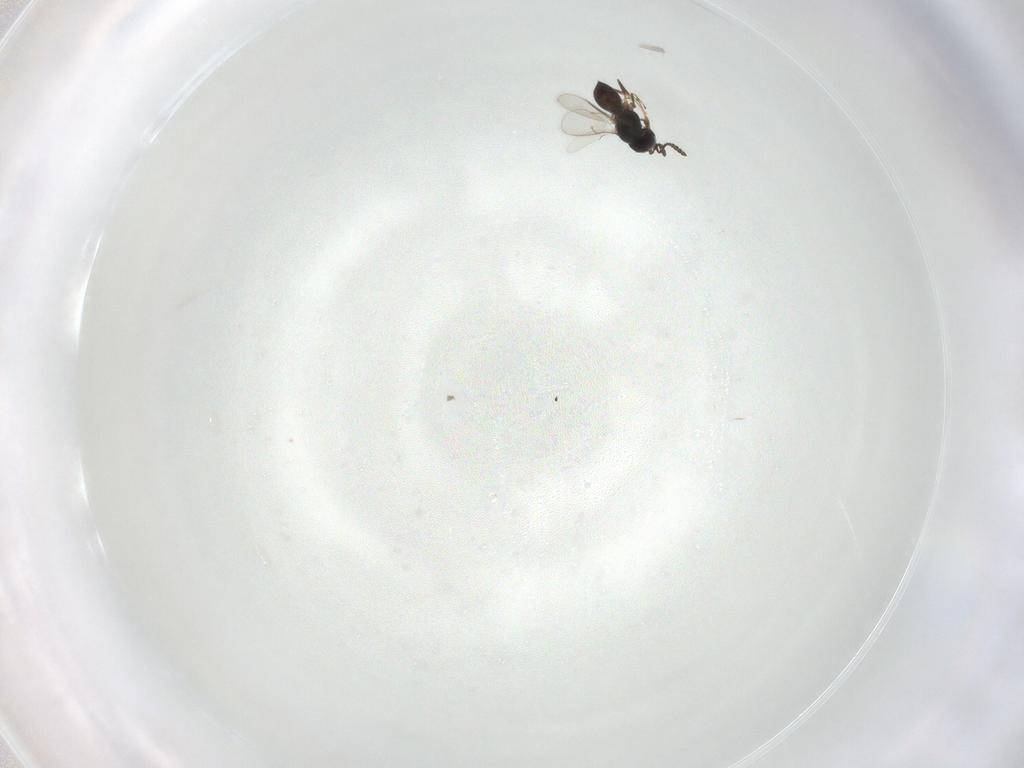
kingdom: Animalia
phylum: Arthropoda
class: Insecta
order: Hymenoptera
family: Scelionidae
